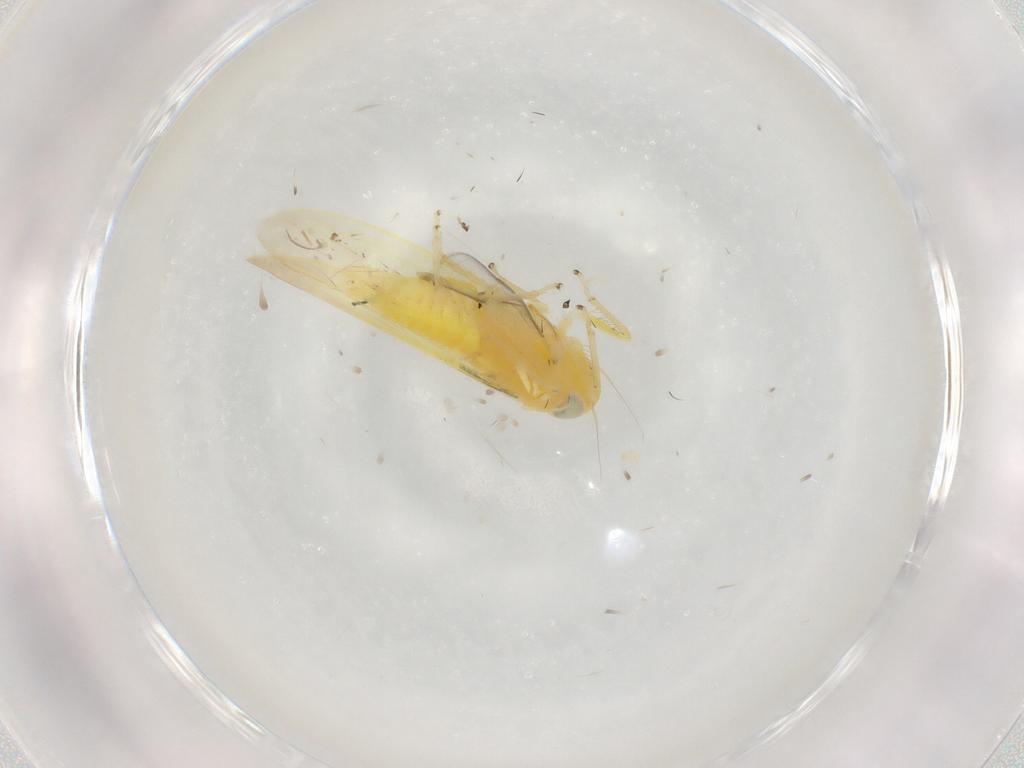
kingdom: Animalia
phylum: Arthropoda
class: Insecta
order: Hemiptera
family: Cicadellidae
